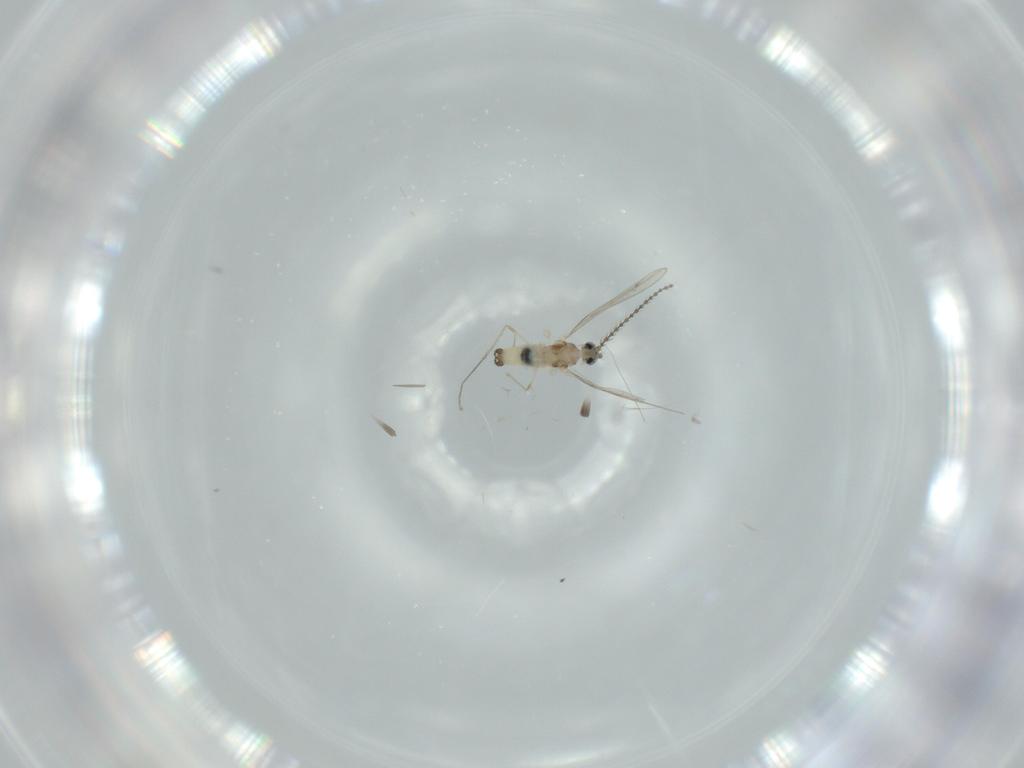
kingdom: Animalia
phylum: Arthropoda
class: Insecta
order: Diptera
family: Cecidomyiidae
